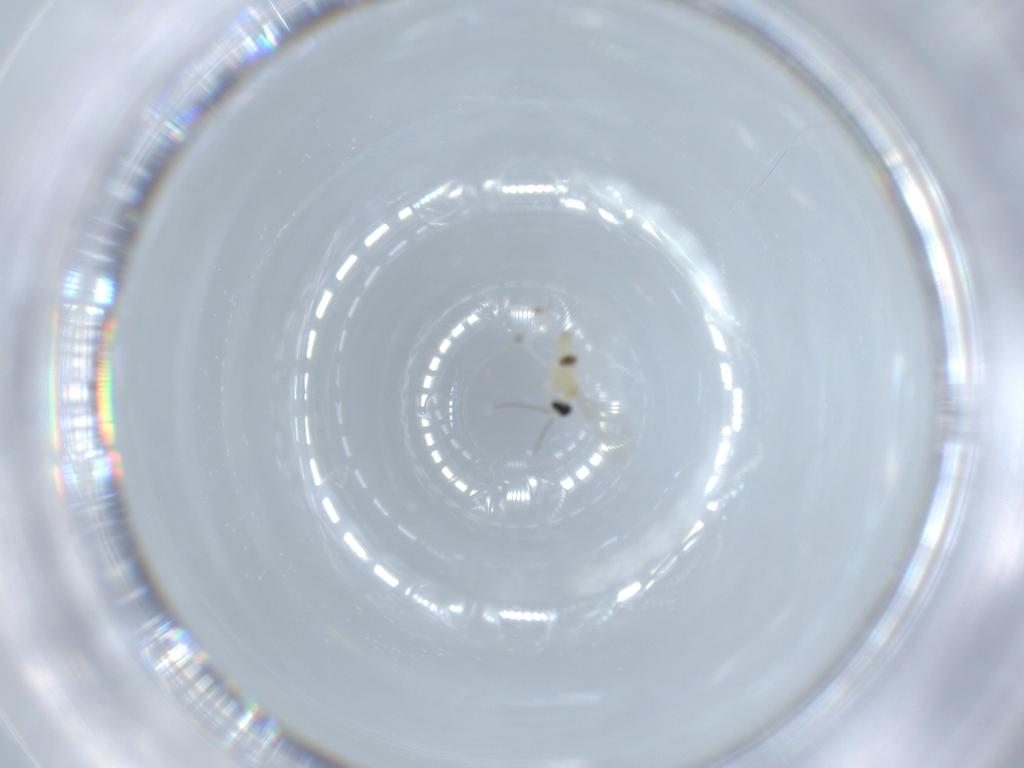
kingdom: Animalia
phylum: Arthropoda
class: Insecta
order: Diptera
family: Cecidomyiidae
